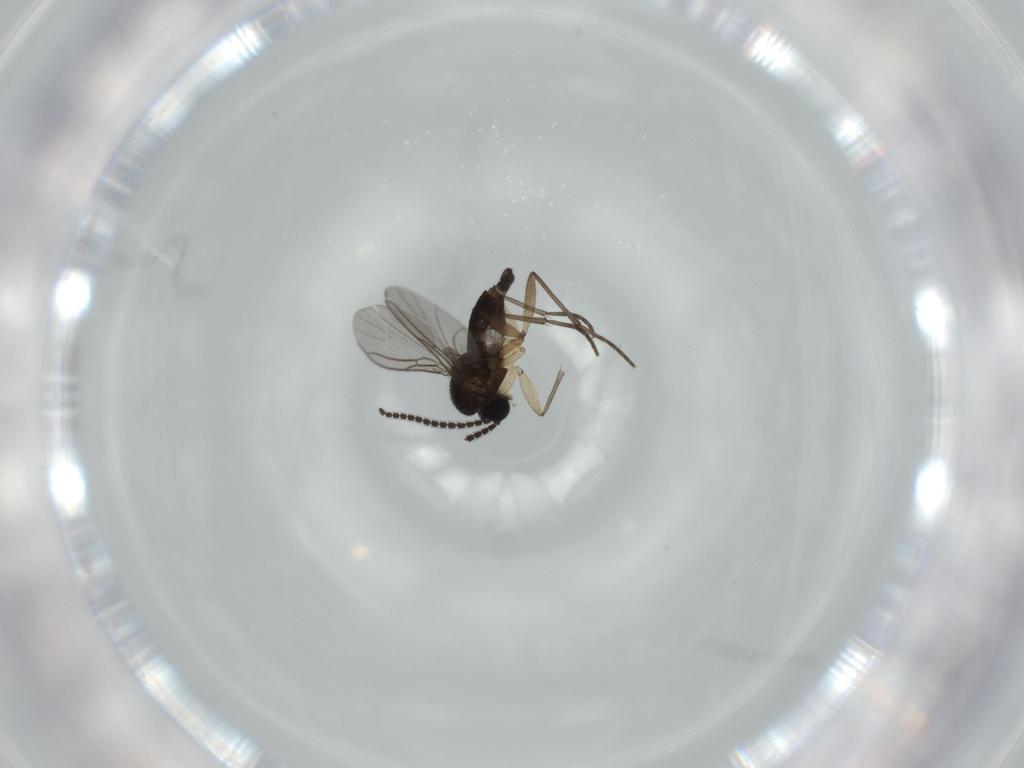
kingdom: Animalia
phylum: Arthropoda
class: Insecta
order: Diptera
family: Sciaridae
